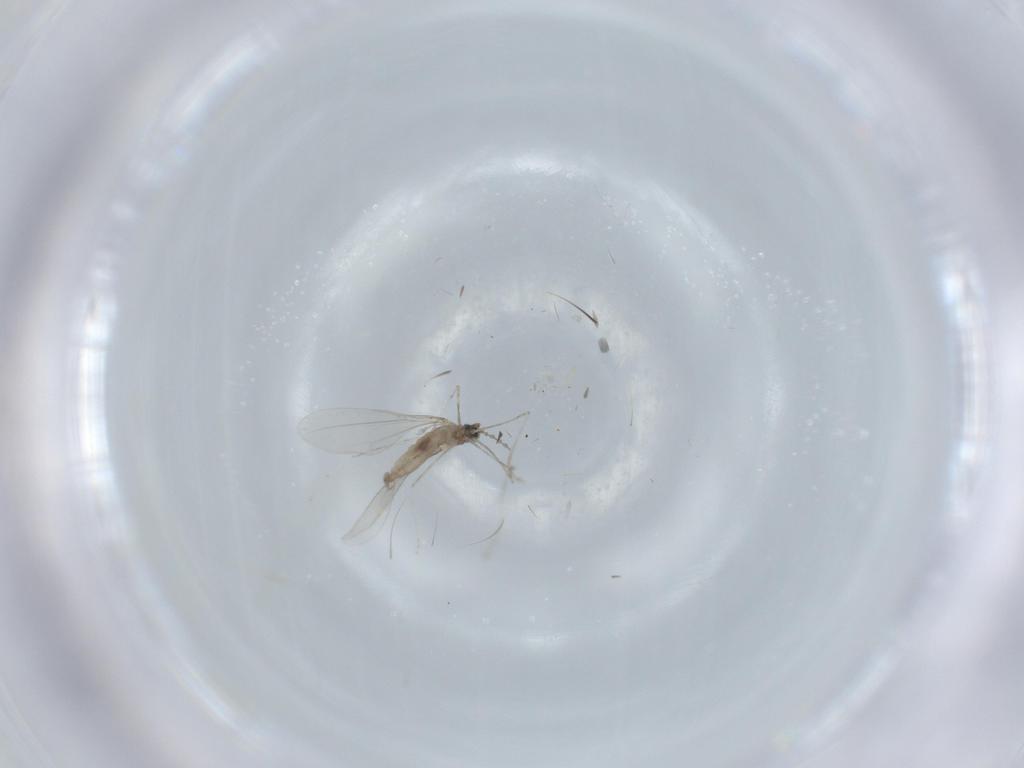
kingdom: Animalia
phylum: Arthropoda
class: Insecta
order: Diptera
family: Cecidomyiidae
